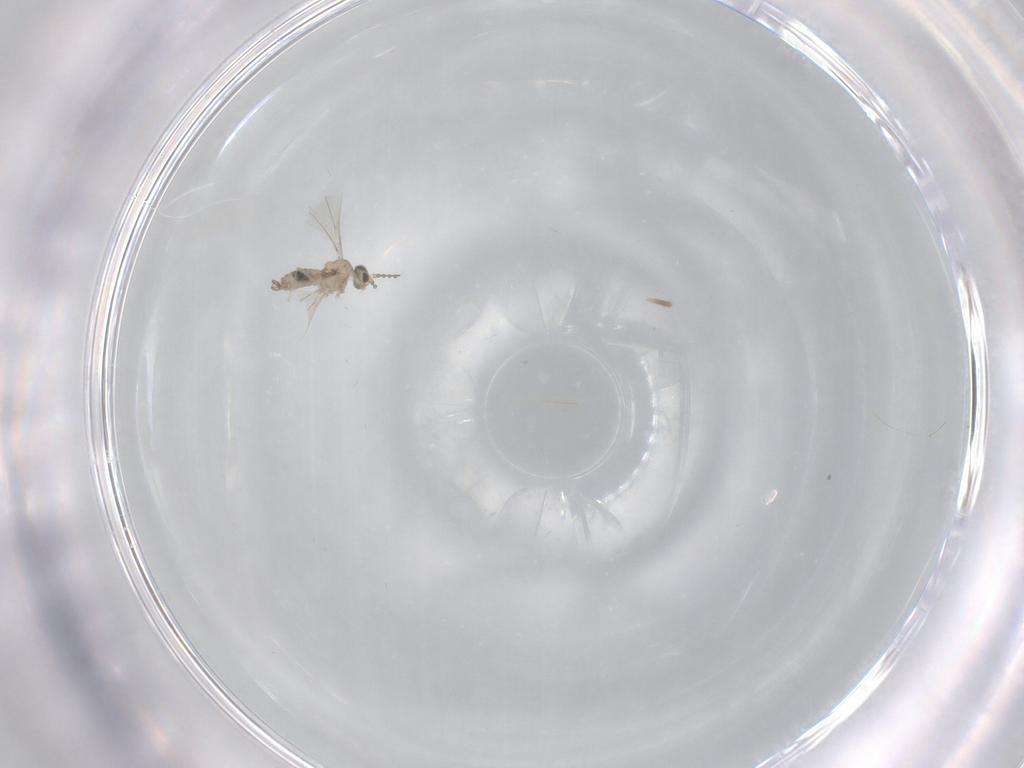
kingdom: Animalia
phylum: Arthropoda
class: Insecta
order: Diptera
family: Cecidomyiidae
